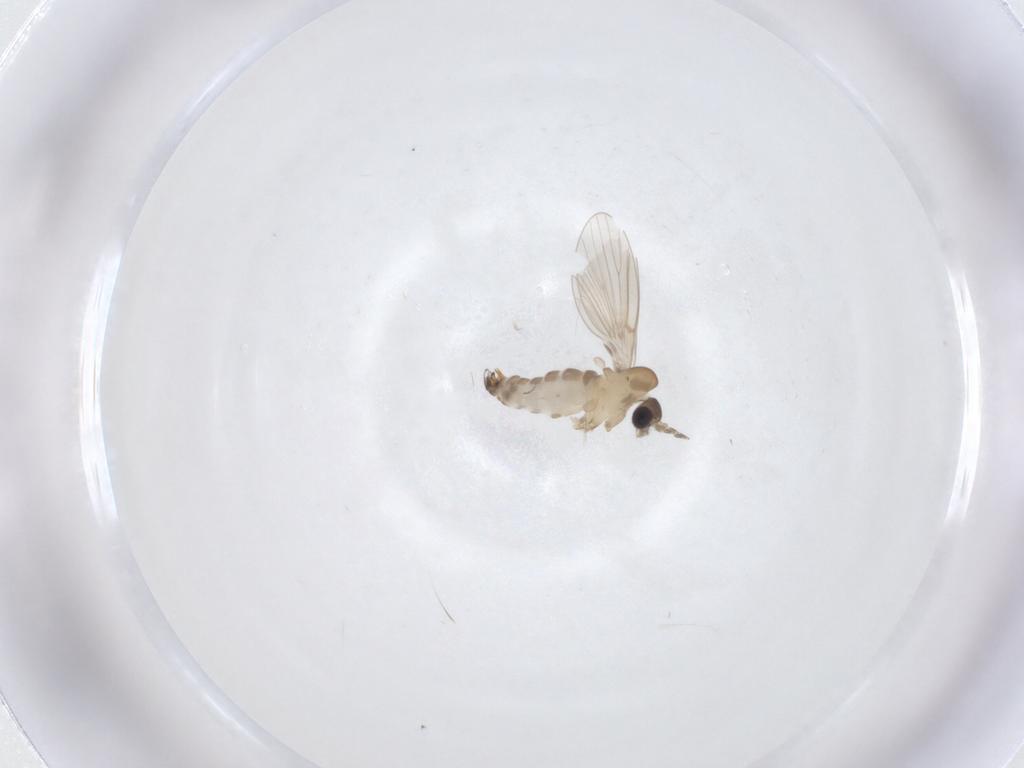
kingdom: Animalia
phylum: Arthropoda
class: Insecta
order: Diptera
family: Psychodidae
